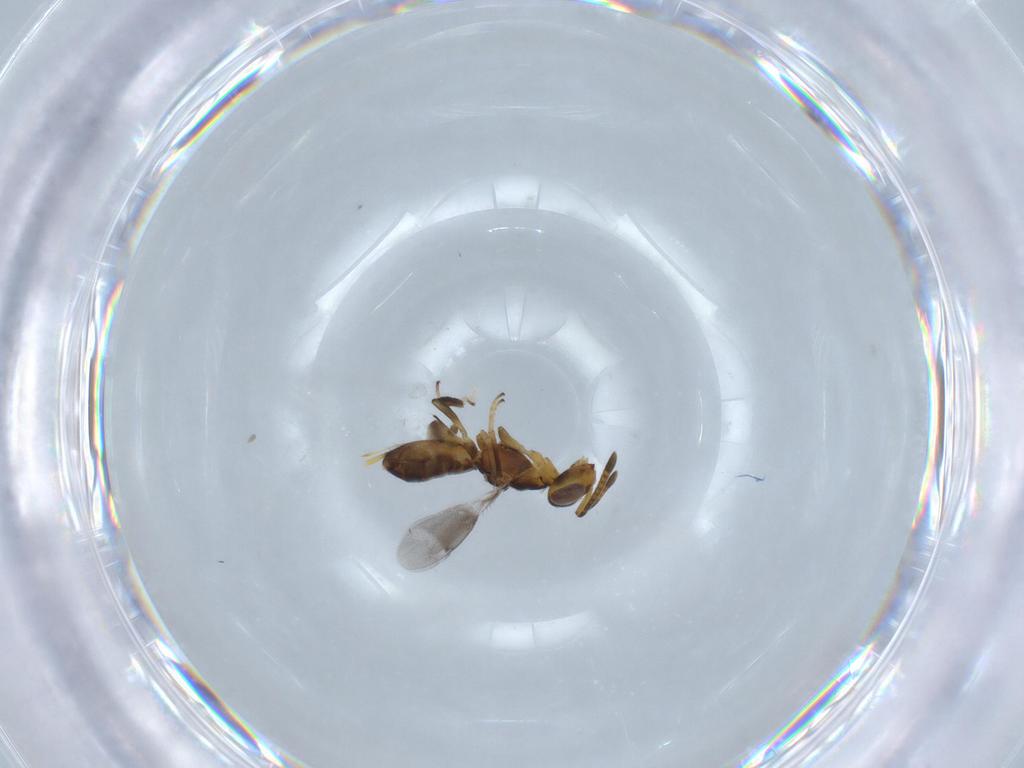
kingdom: Animalia
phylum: Arthropoda
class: Insecta
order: Hymenoptera
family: Eupelmidae
